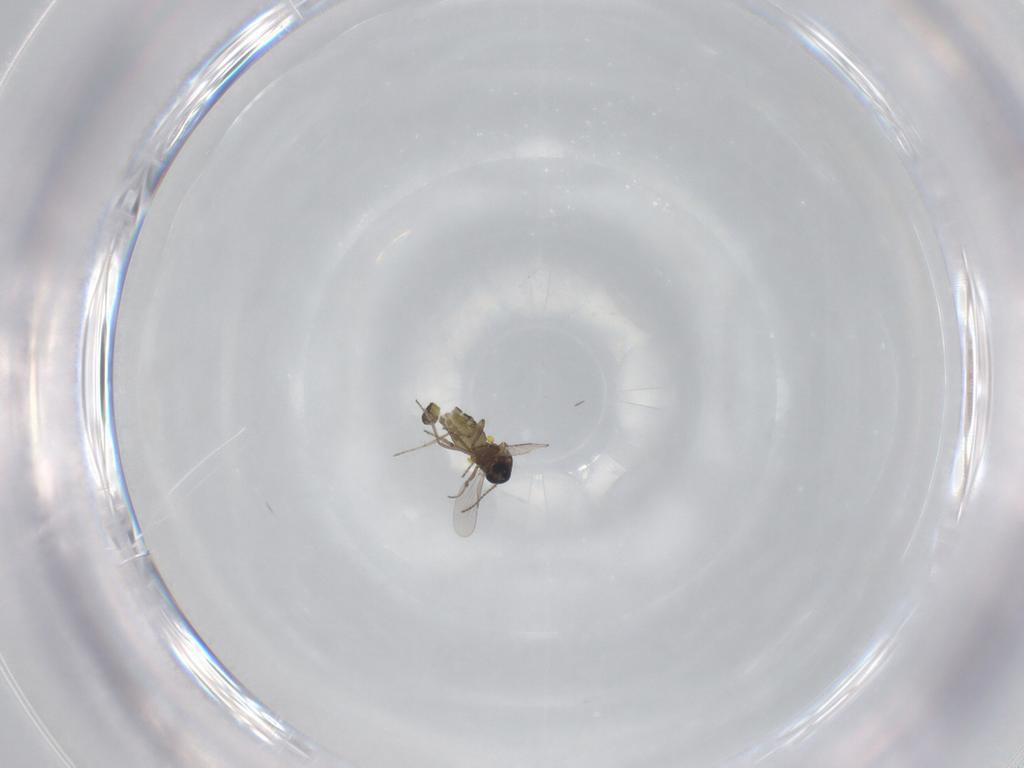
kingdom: Animalia
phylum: Arthropoda
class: Insecta
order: Diptera
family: Ceratopogonidae
